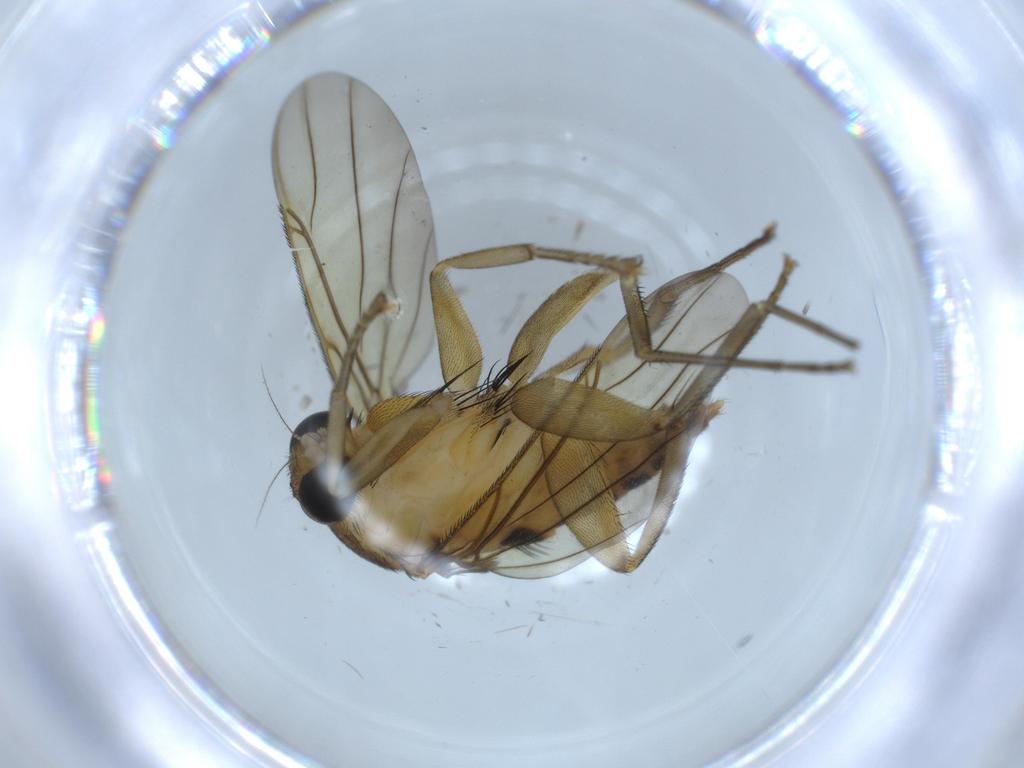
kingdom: Animalia
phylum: Arthropoda
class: Insecta
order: Diptera
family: Phoridae
